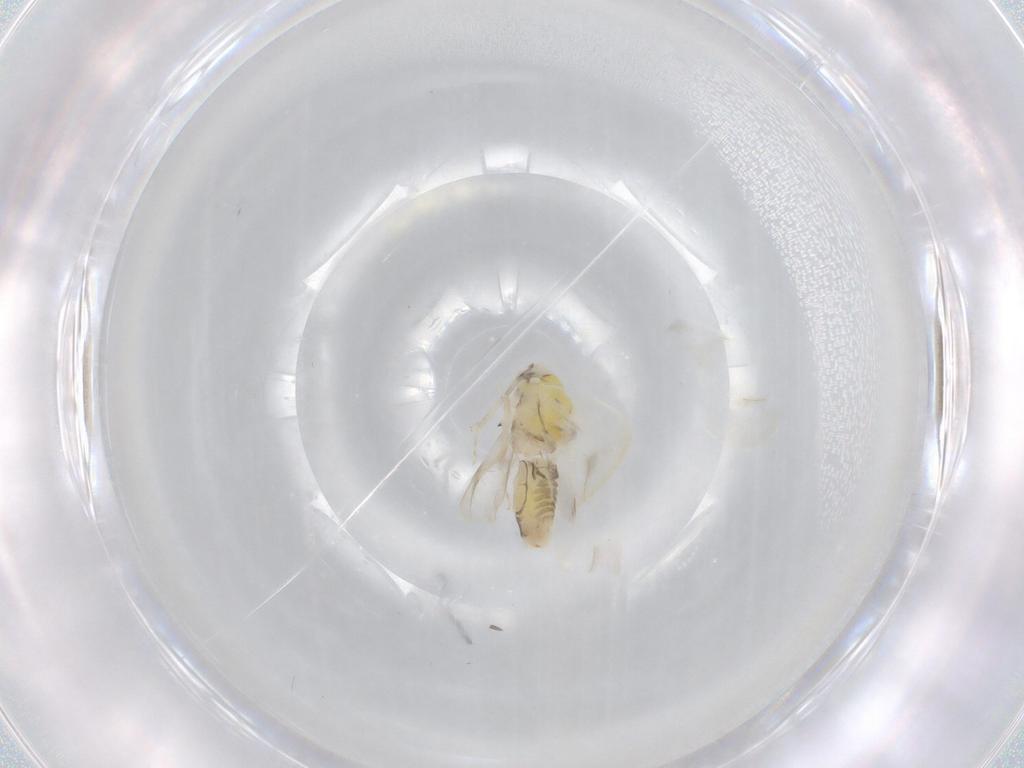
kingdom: Animalia
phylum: Arthropoda
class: Insecta
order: Hemiptera
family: Aleyrodidae
